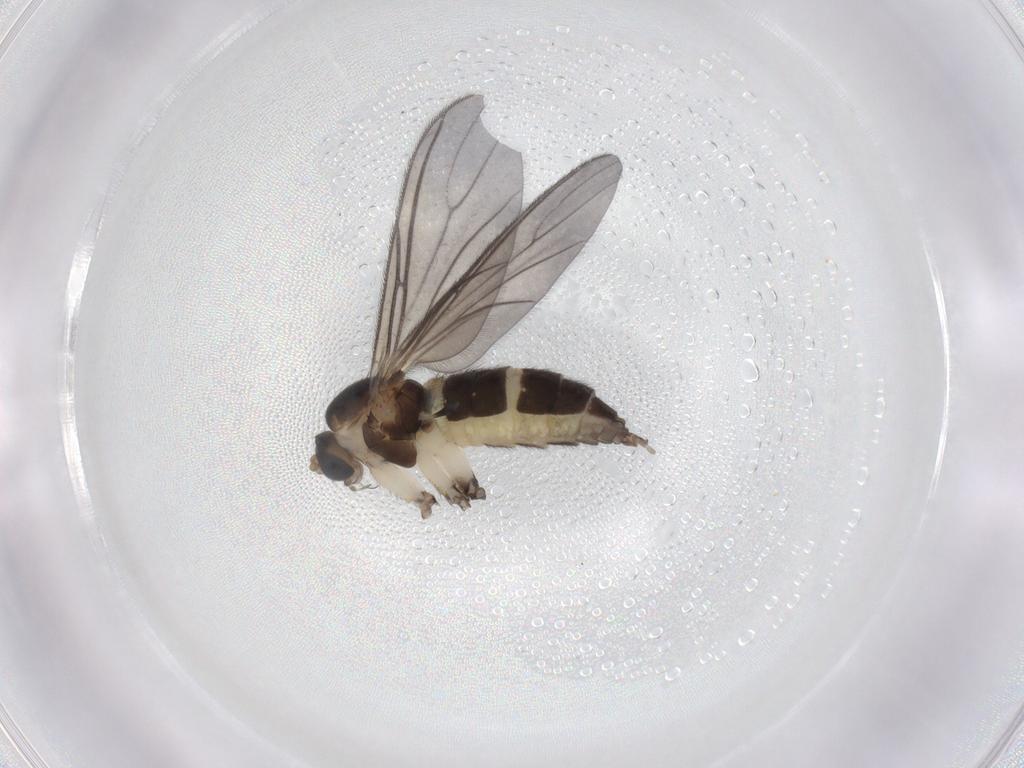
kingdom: Animalia
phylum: Arthropoda
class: Insecta
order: Diptera
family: Sciaridae
